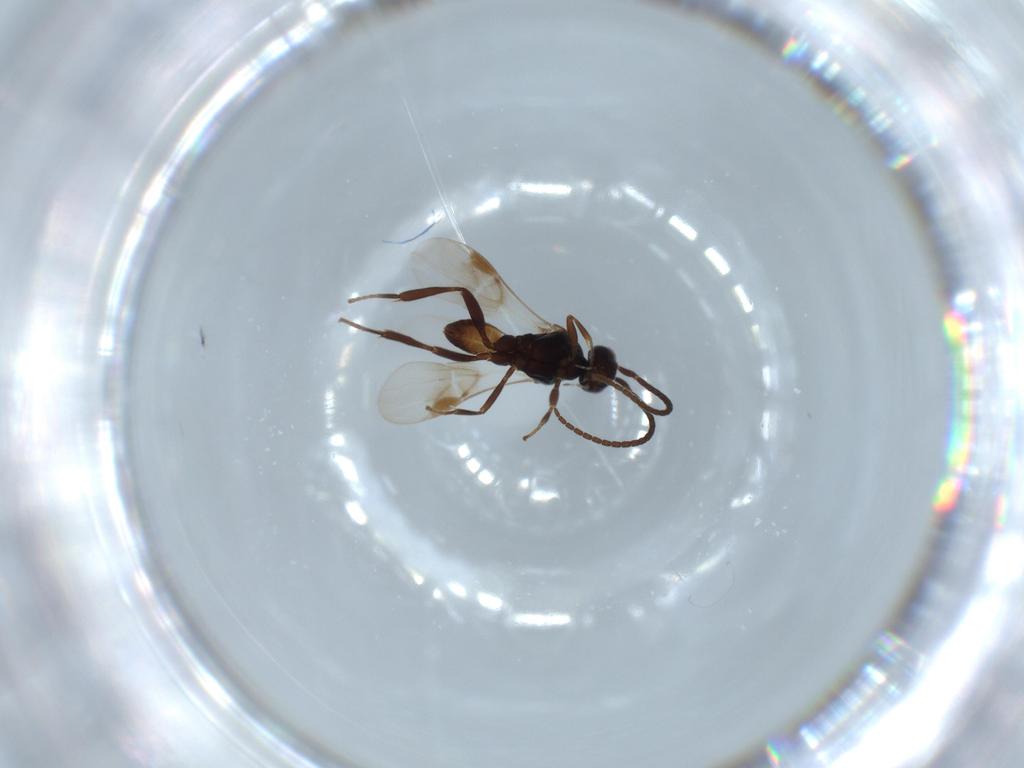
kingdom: Animalia
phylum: Arthropoda
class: Insecta
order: Hymenoptera
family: Braconidae
